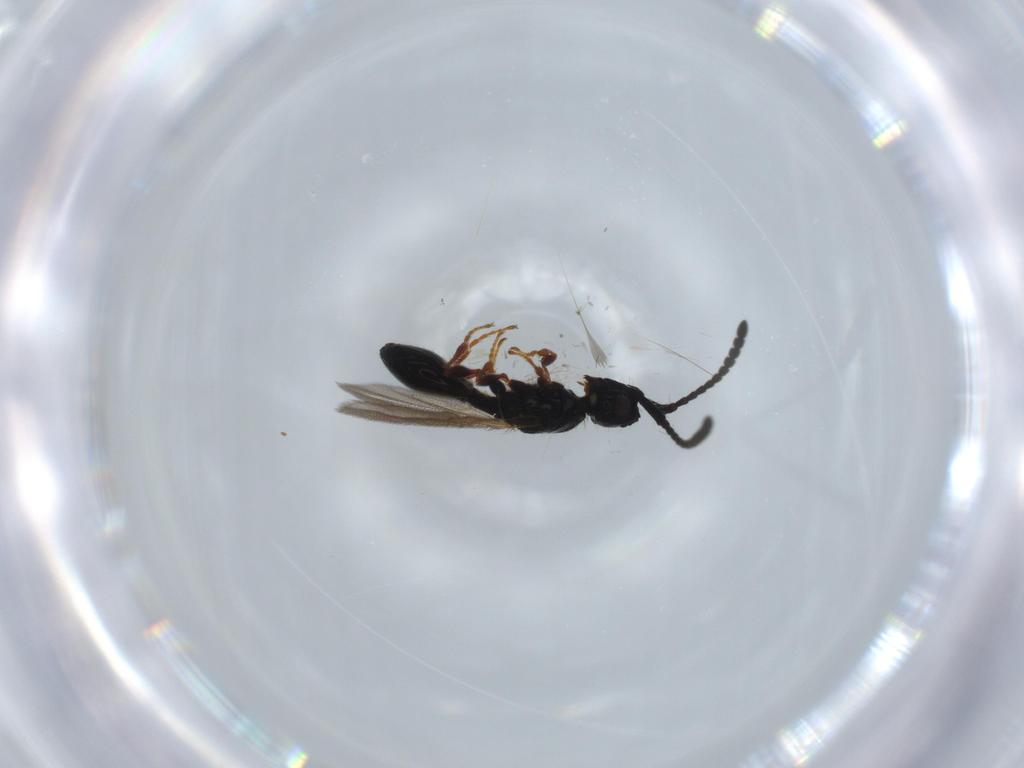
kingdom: Animalia
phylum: Arthropoda
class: Insecta
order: Hymenoptera
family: Diapriidae
